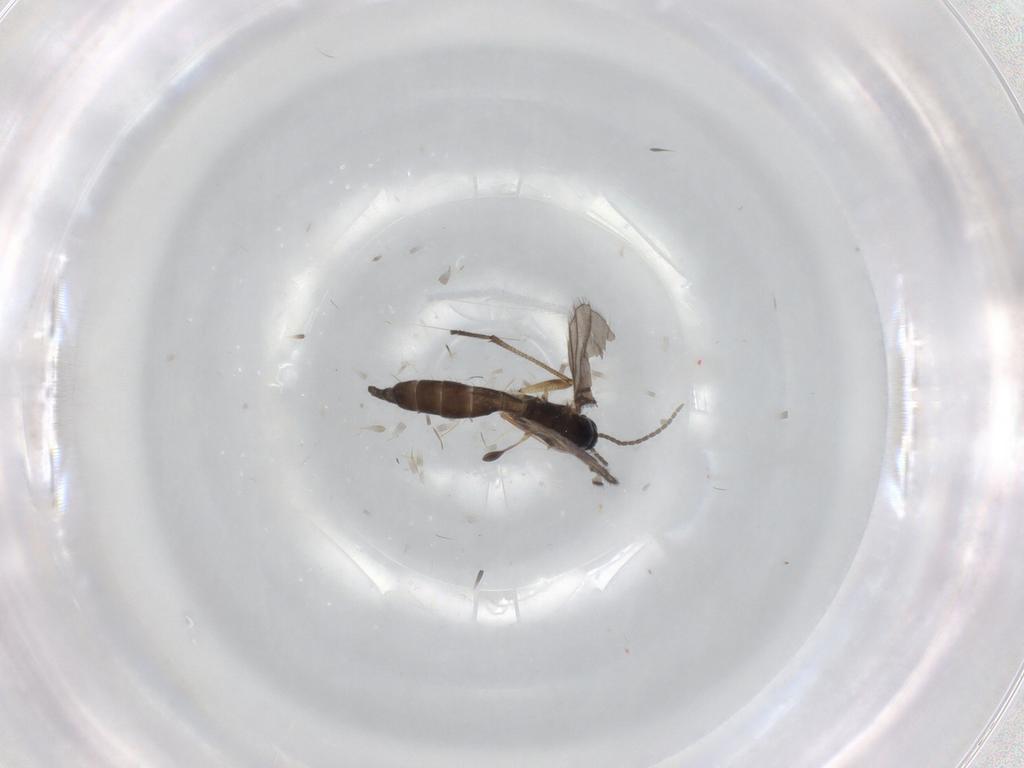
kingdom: Animalia
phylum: Arthropoda
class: Insecta
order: Diptera
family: Sciaridae
